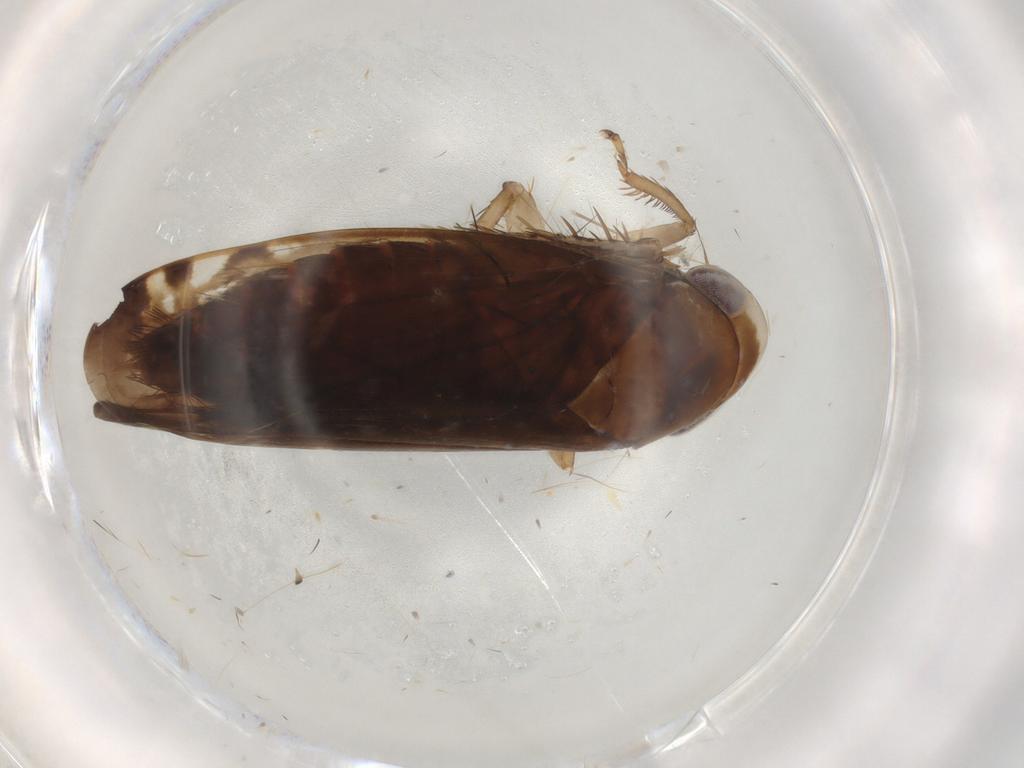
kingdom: Animalia
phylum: Arthropoda
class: Insecta
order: Hemiptera
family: Cicadellidae
